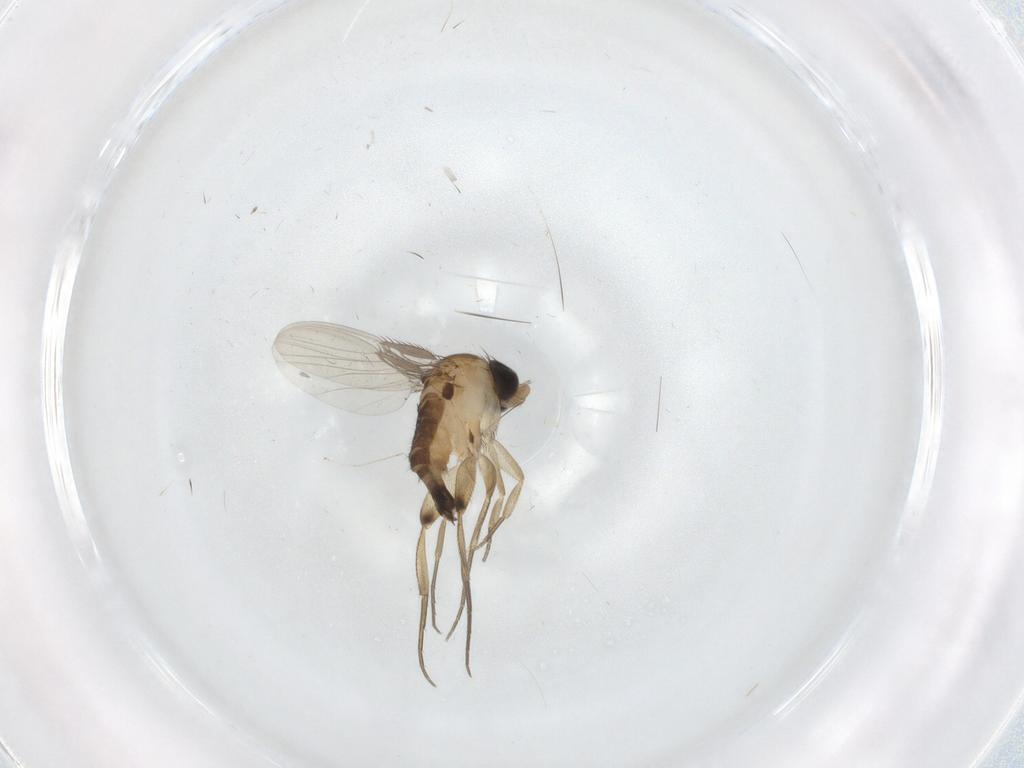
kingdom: Animalia
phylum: Arthropoda
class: Insecta
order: Diptera
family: Phoridae
